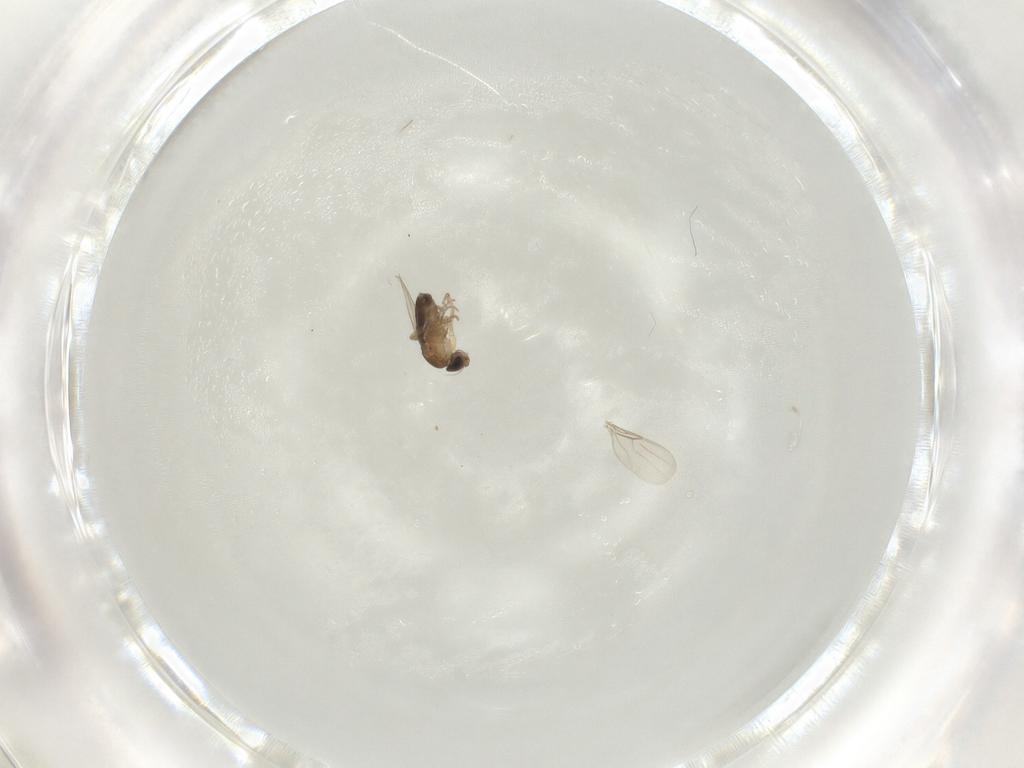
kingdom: Animalia
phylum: Arthropoda
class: Insecta
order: Diptera
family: Phoridae
